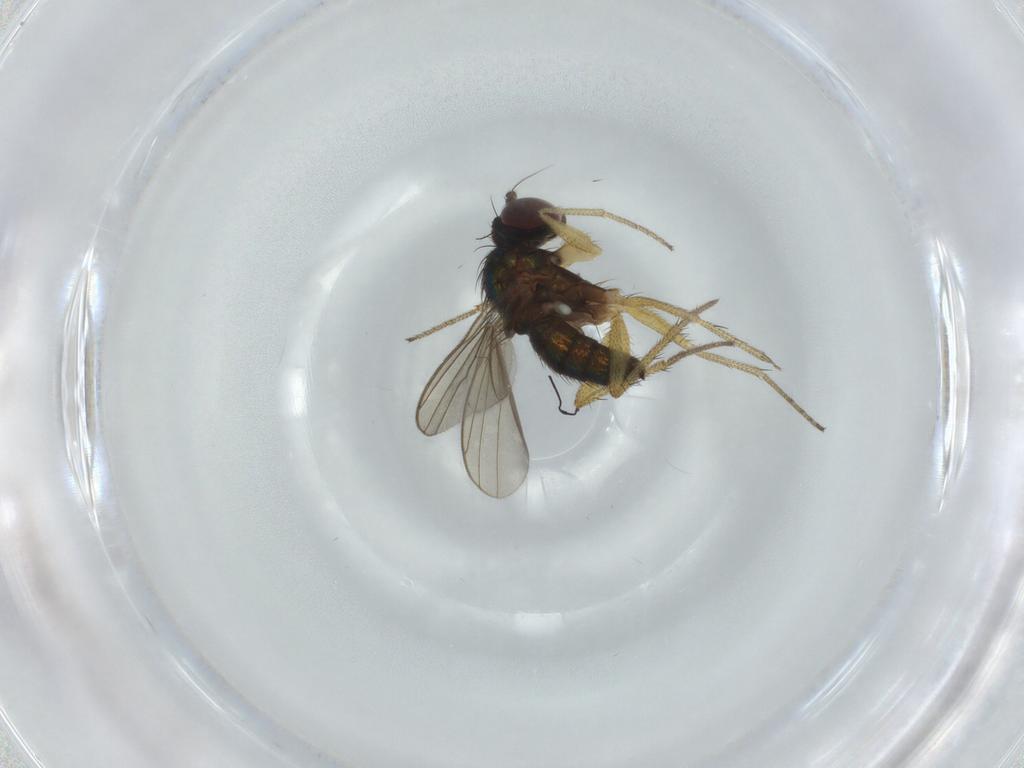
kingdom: Animalia
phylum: Arthropoda
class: Insecta
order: Diptera
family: Dolichopodidae
